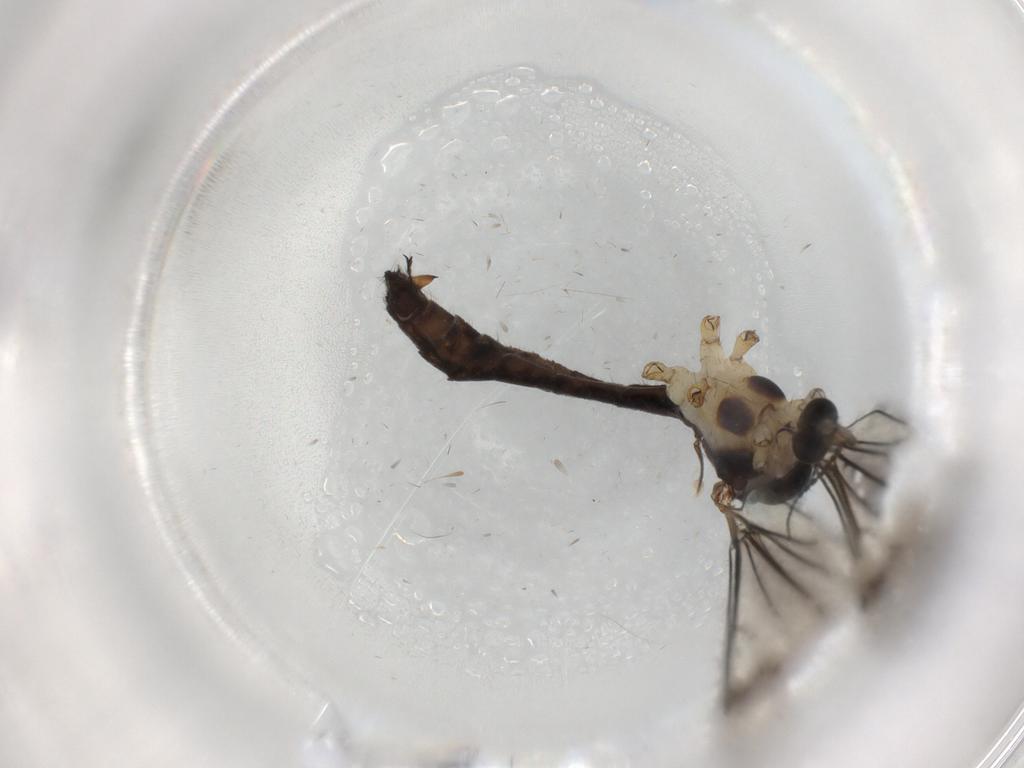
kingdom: Animalia
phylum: Arthropoda
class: Insecta
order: Diptera
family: Limoniidae
